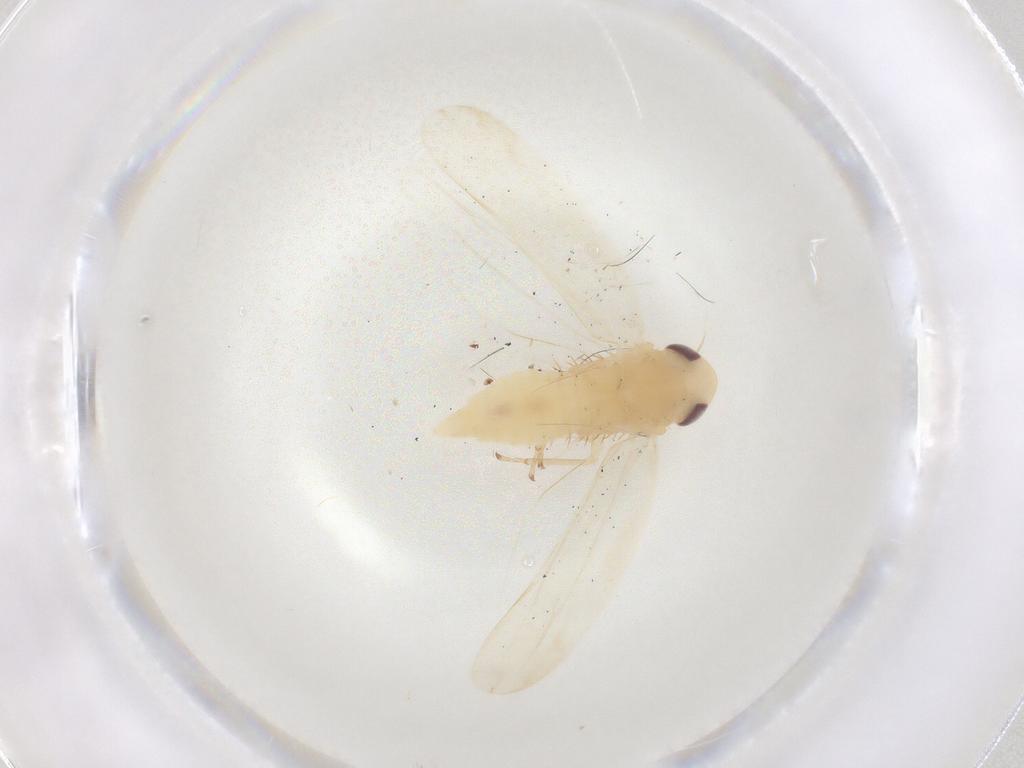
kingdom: Animalia
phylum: Arthropoda
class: Insecta
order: Hemiptera
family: Cicadellidae
